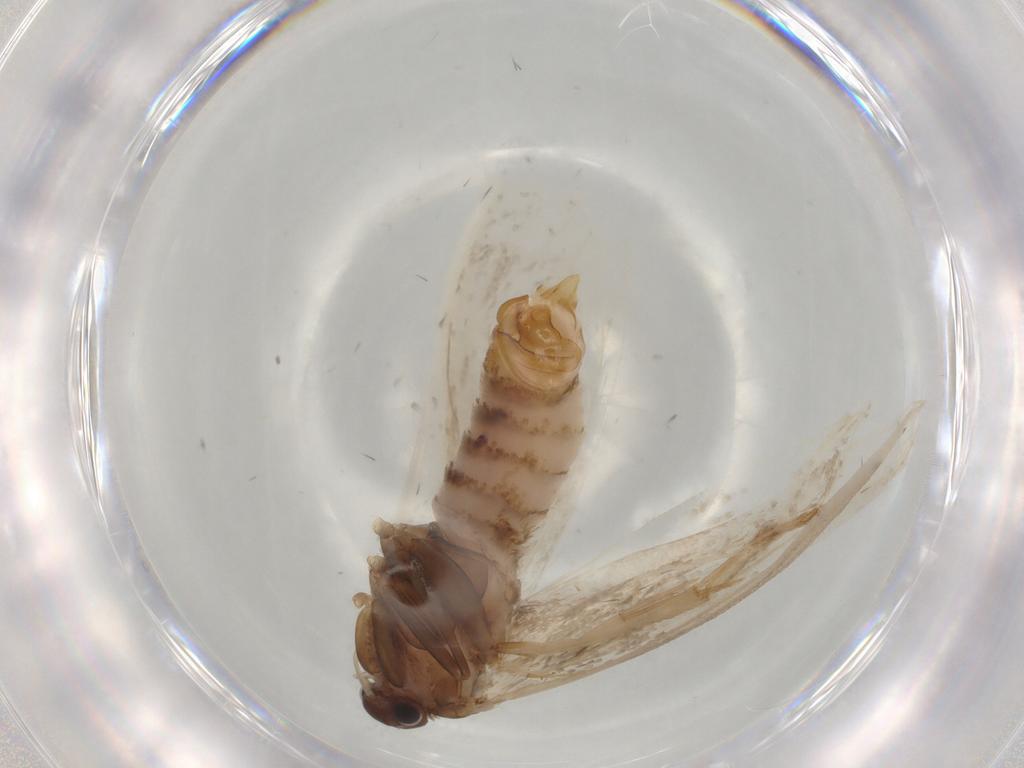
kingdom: Animalia
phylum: Arthropoda
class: Insecta
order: Lepidoptera
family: Yponomeutidae
